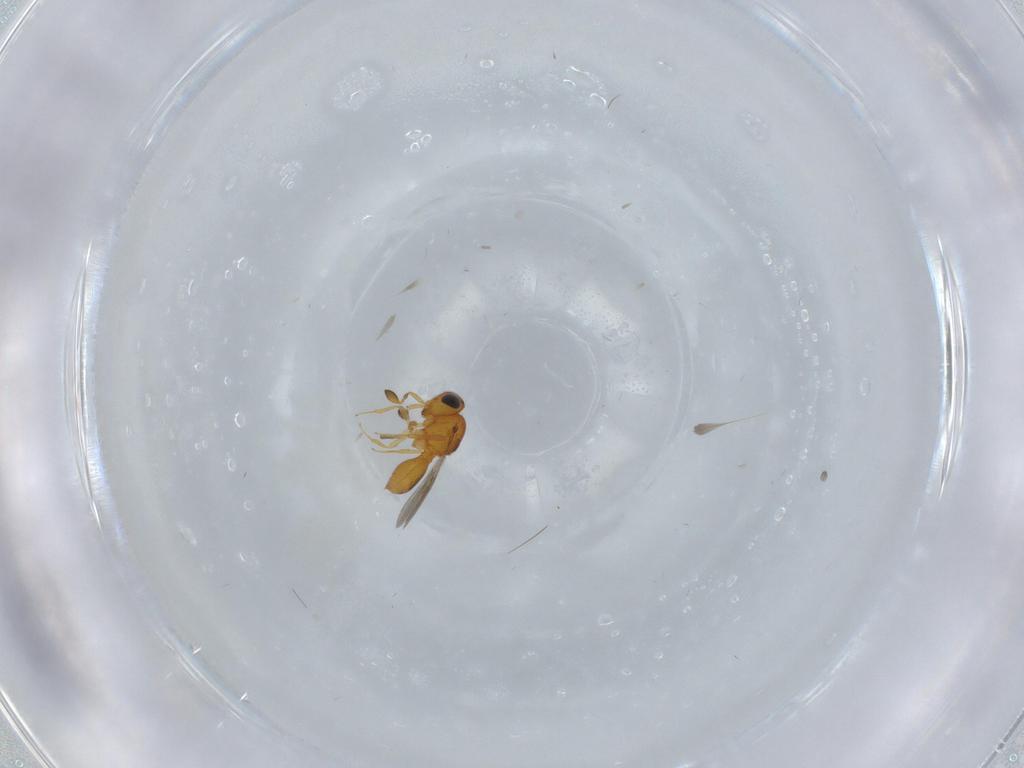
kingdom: Animalia
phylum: Arthropoda
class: Insecta
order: Hymenoptera
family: Scelionidae
